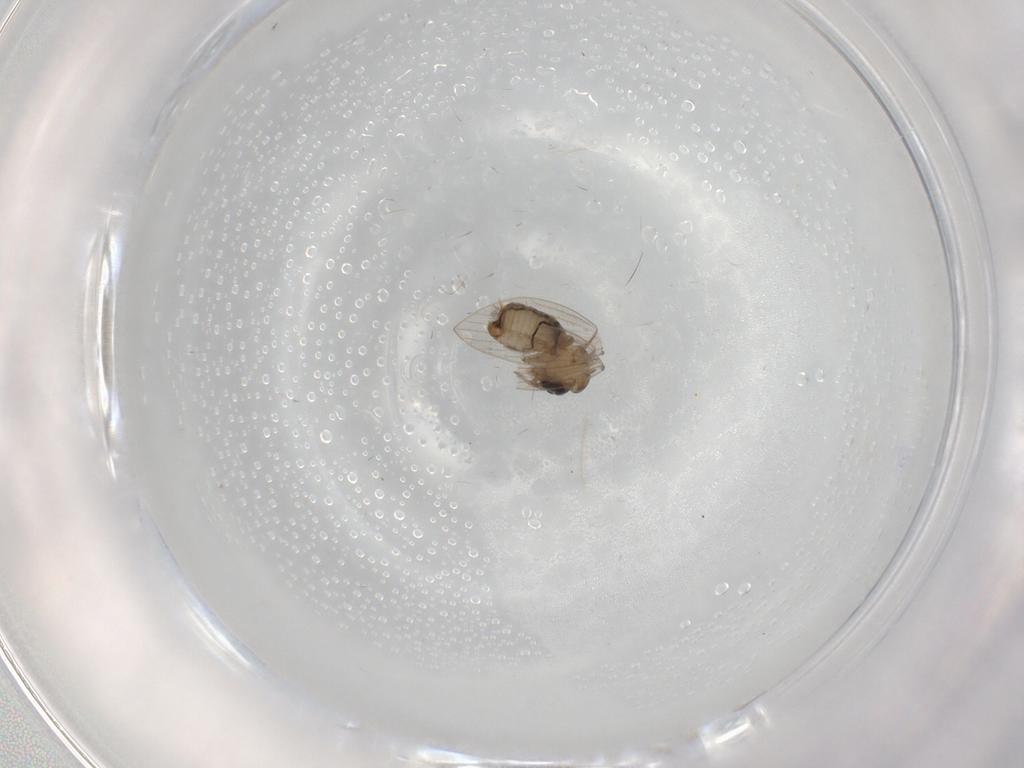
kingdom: Animalia
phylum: Arthropoda
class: Insecta
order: Diptera
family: Psychodidae
